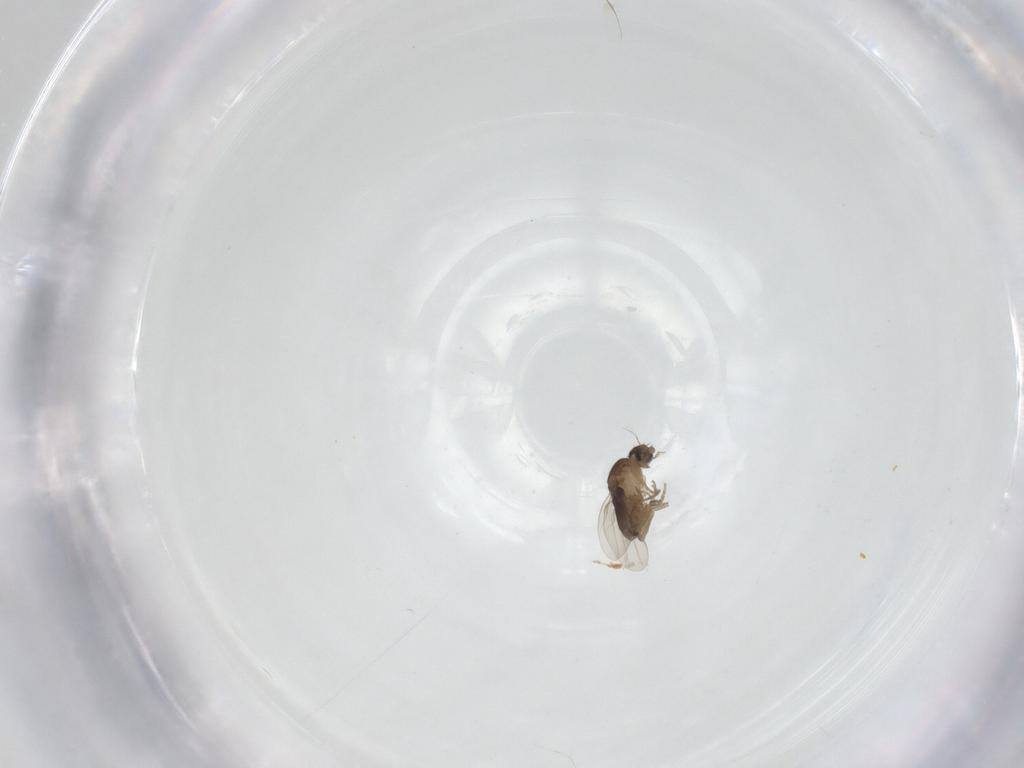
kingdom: Animalia
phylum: Arthropoda
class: Insecta
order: Diptera
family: Phoridae
